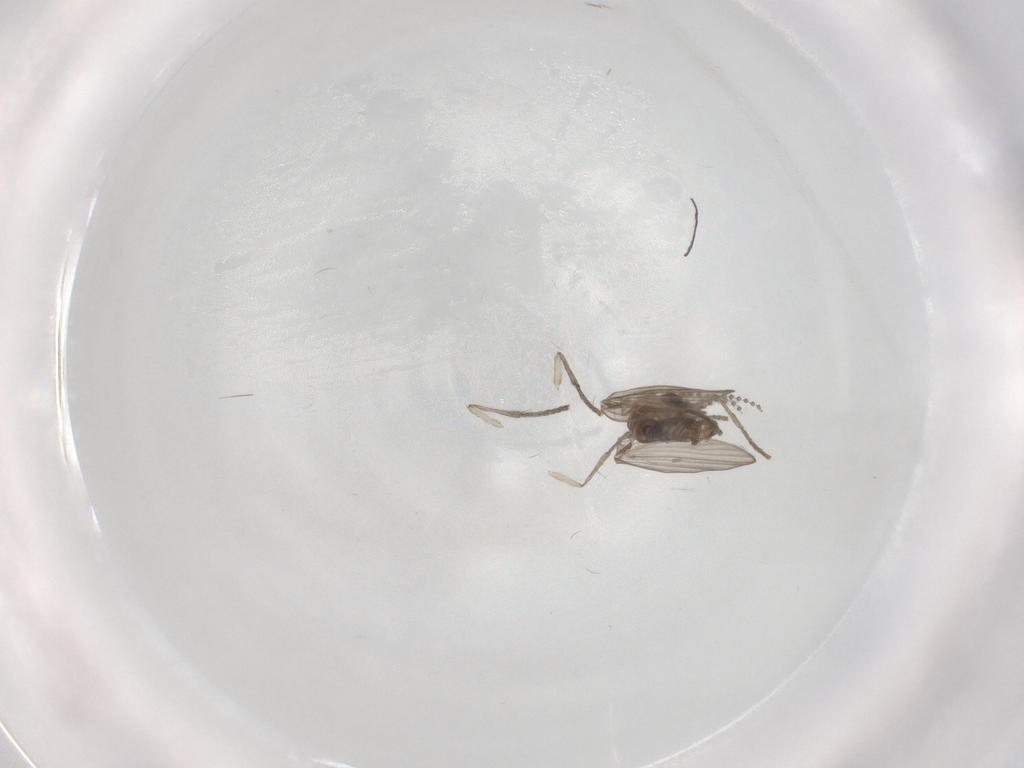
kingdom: Animalia
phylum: Arthropoda
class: Insecta
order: Diptera
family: Psychodidae
